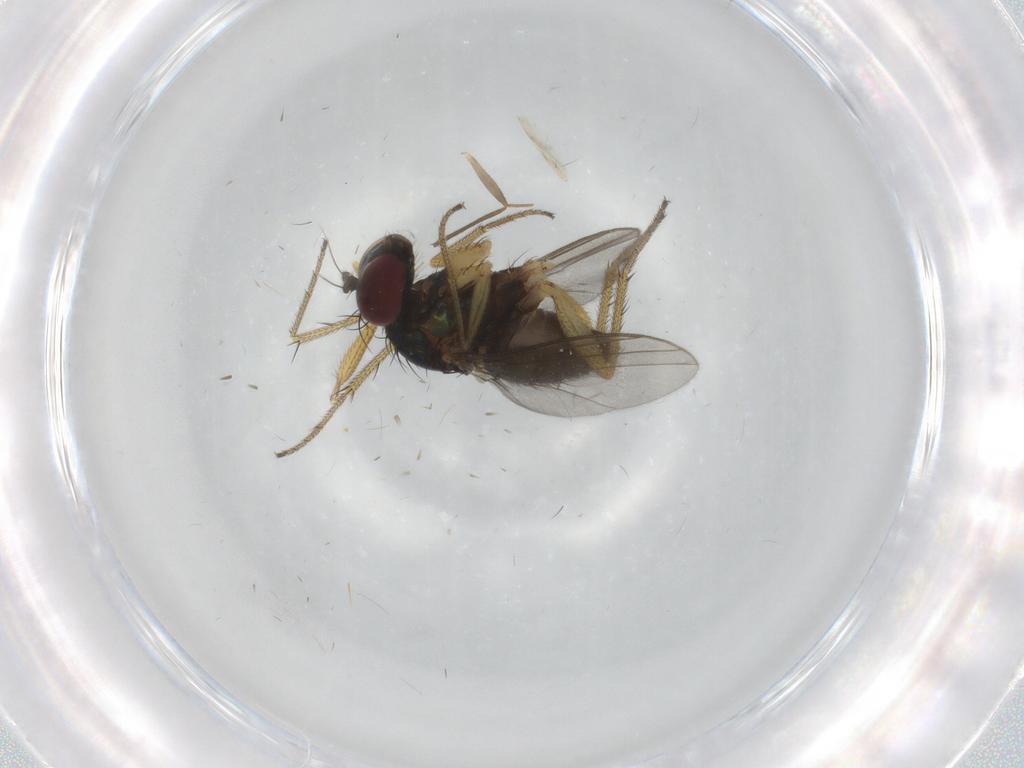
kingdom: Animalia
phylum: Arthropoda
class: Insecta
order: Diptera
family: Dolichopodidae
